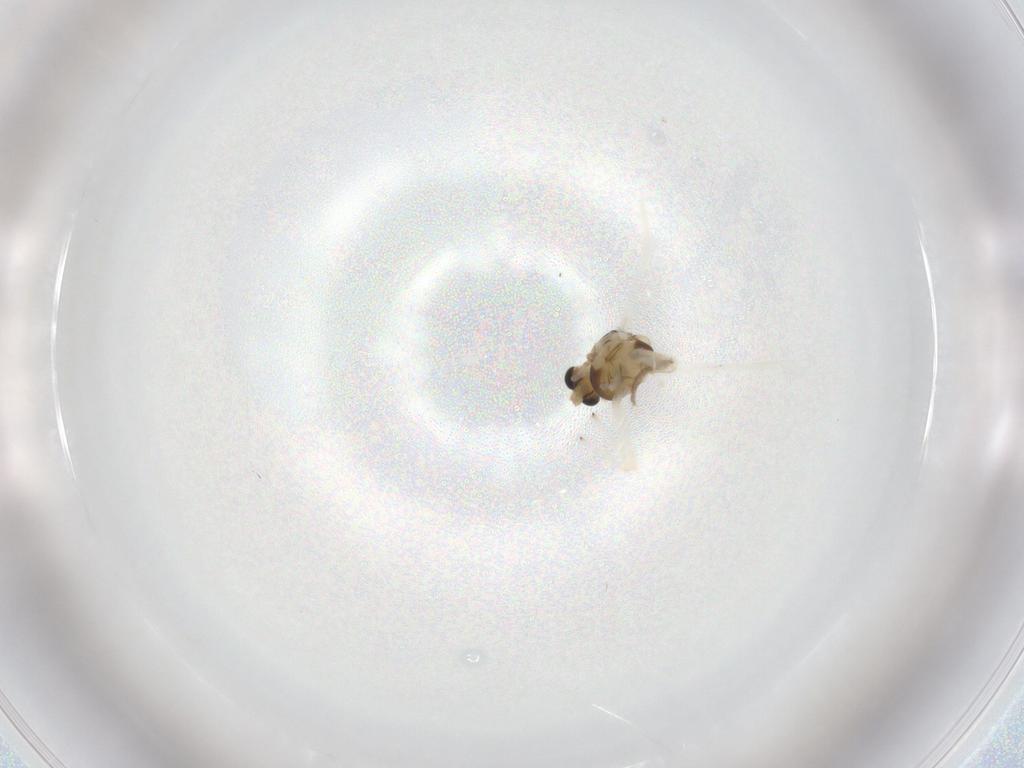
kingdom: Animalia
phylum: Arthropoda
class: Insecta
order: Diptera
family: Chironomidae
